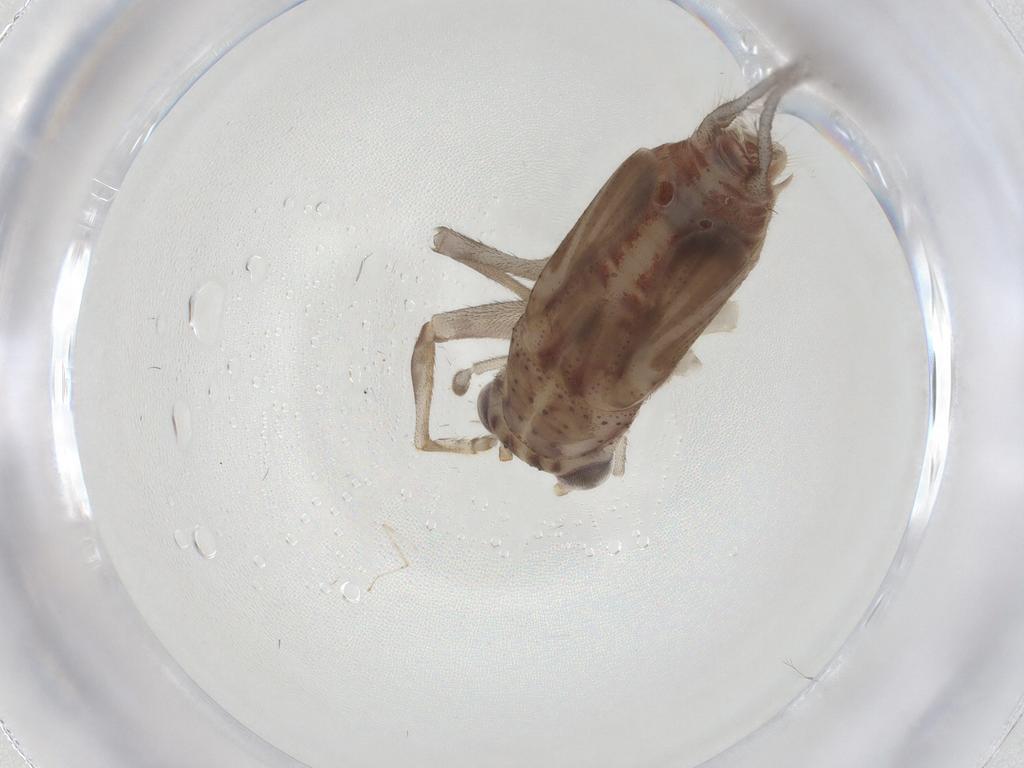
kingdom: Animalia
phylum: Arthropoda
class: Insecta
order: Orthoptera
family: Trigonidiidae
